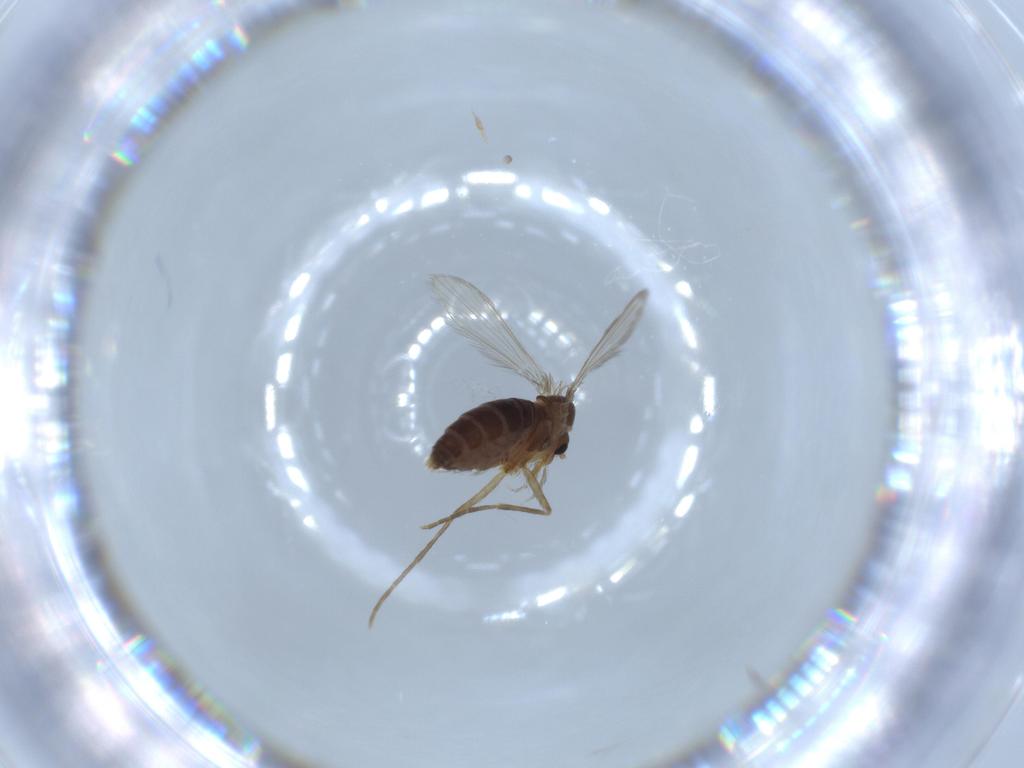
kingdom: Animalia
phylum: Arthropoda
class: Insecta
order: Diptera
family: Psychodidae
